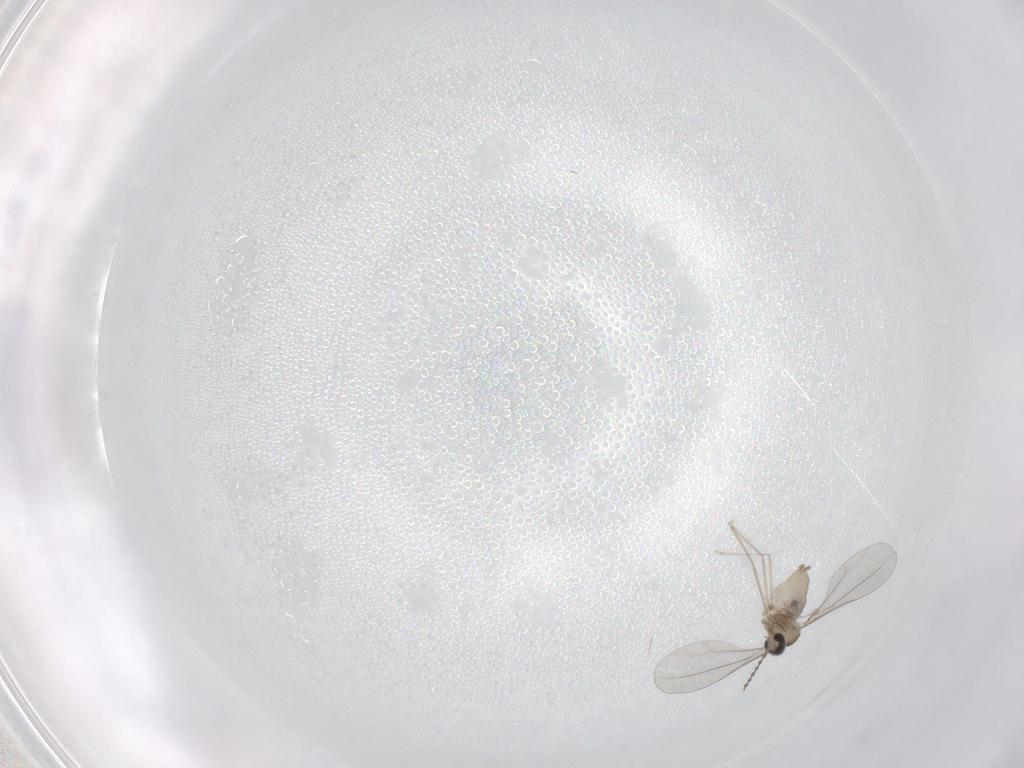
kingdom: Animalia
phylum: Arthropoda
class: Insecta
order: Diptera
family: Cecidomyiidae
